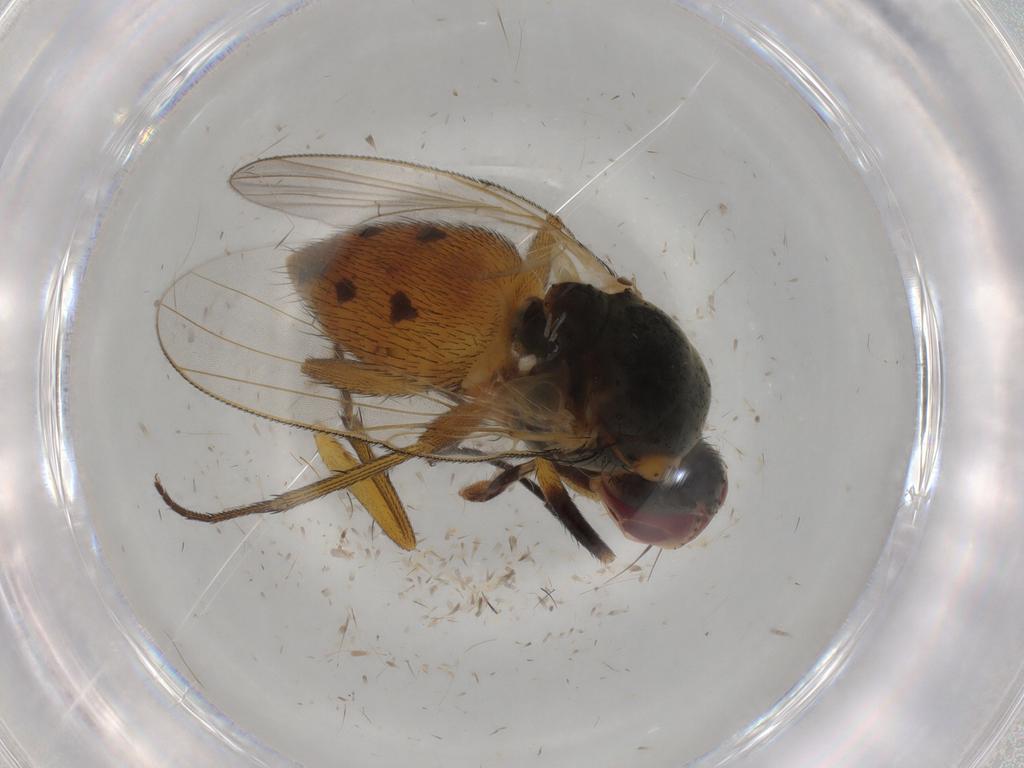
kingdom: Animalia
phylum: Arthropoda
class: Insecta
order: Diptera
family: Muscidae
